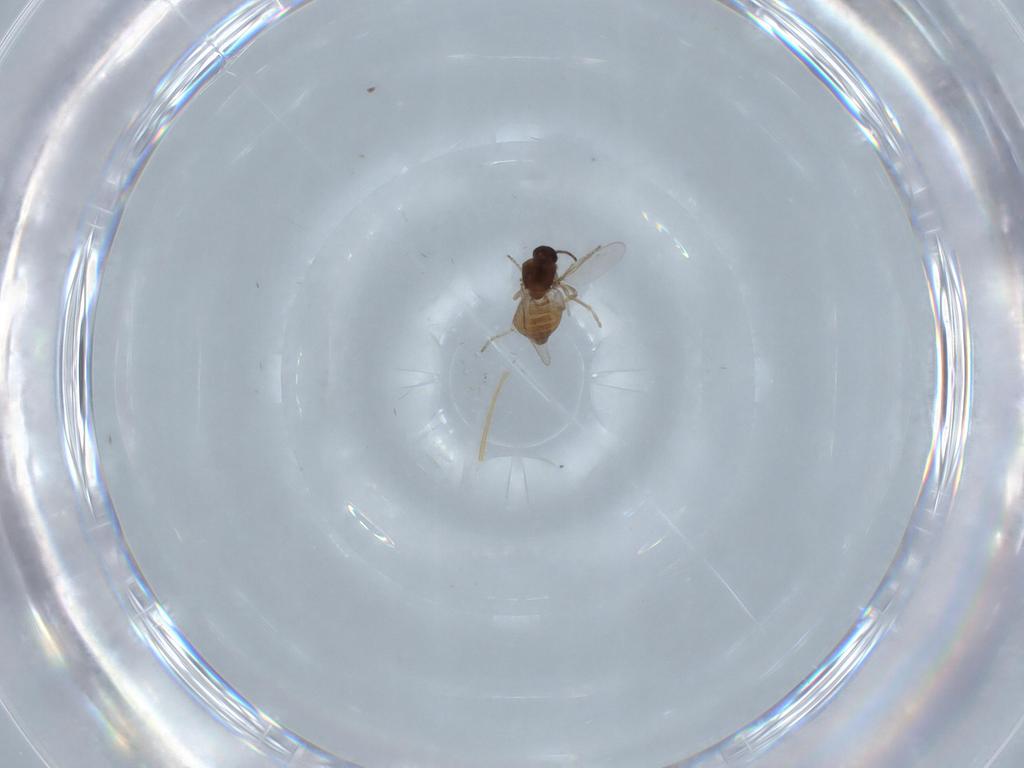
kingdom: Animalia
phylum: Arthropoda
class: Insecta
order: Diptera
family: Ceratopogonidae
